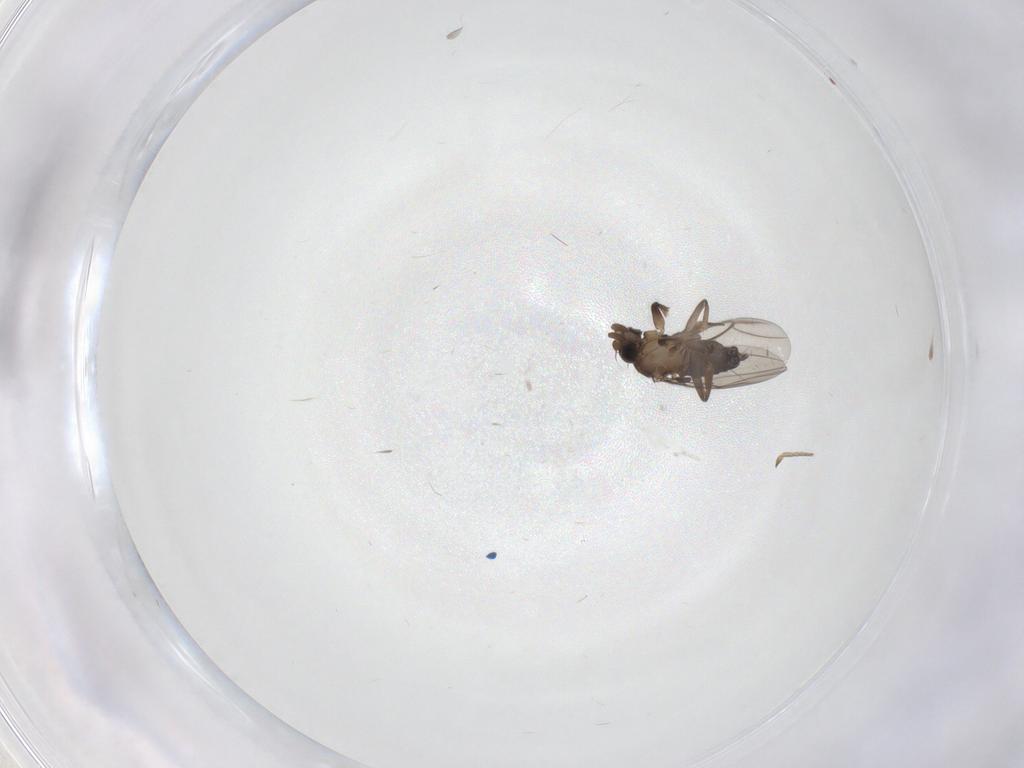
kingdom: Animalia
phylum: Arthropoda
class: Insecta
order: Diptera
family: Phoridae
